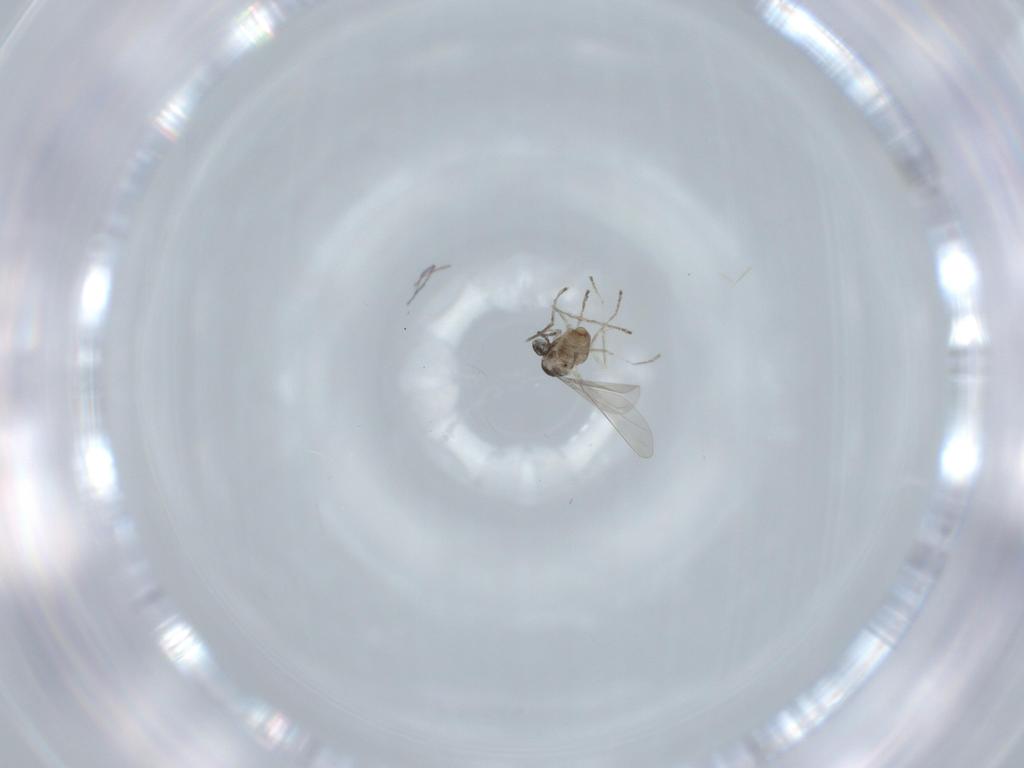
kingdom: Animalia
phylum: Arthropoda
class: Insecta
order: Diptera
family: Cecidomyiidae
